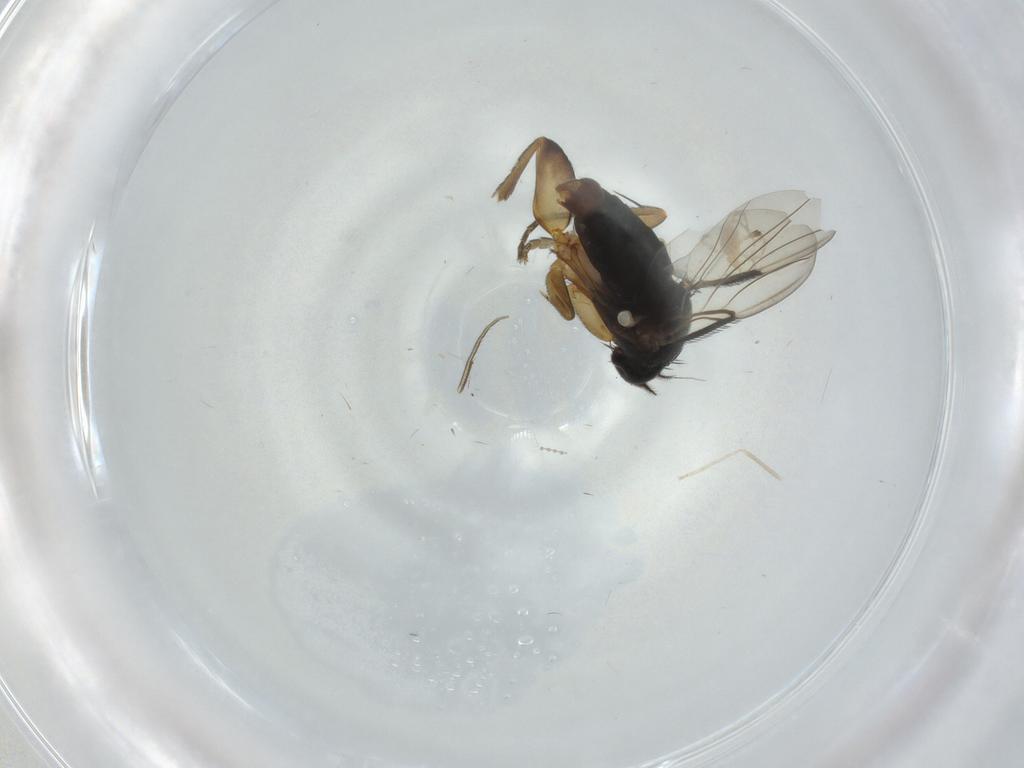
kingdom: Animalia
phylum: Arthropoda
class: Insecta
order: Diptera
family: Phoridae
